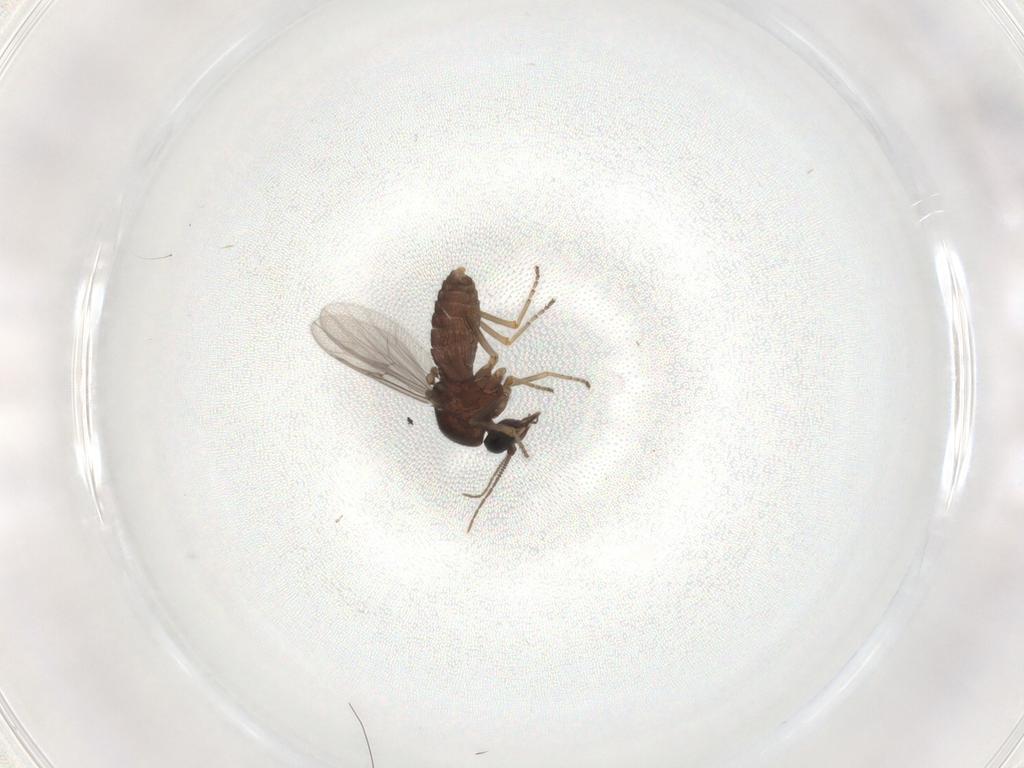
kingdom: Animalia
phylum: Arthropoda
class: Insecta
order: Diptera
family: Ceratopogonidae
